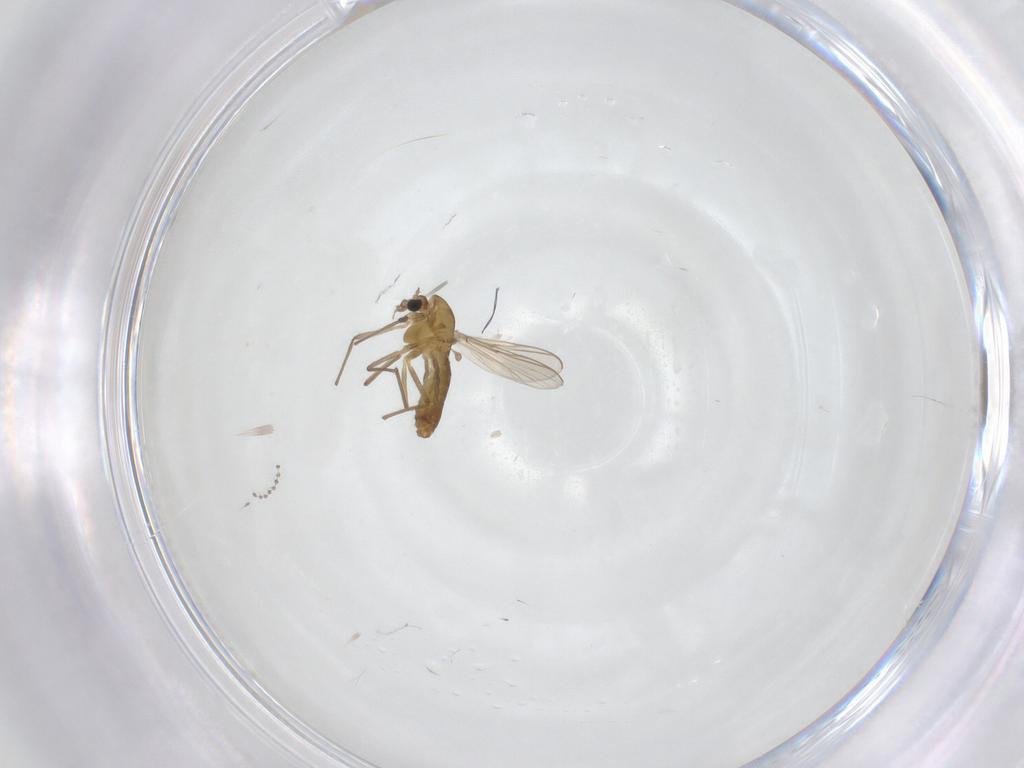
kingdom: Animalia
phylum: Arthropoda
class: Insecta
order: Diptera
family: Chironomidae
